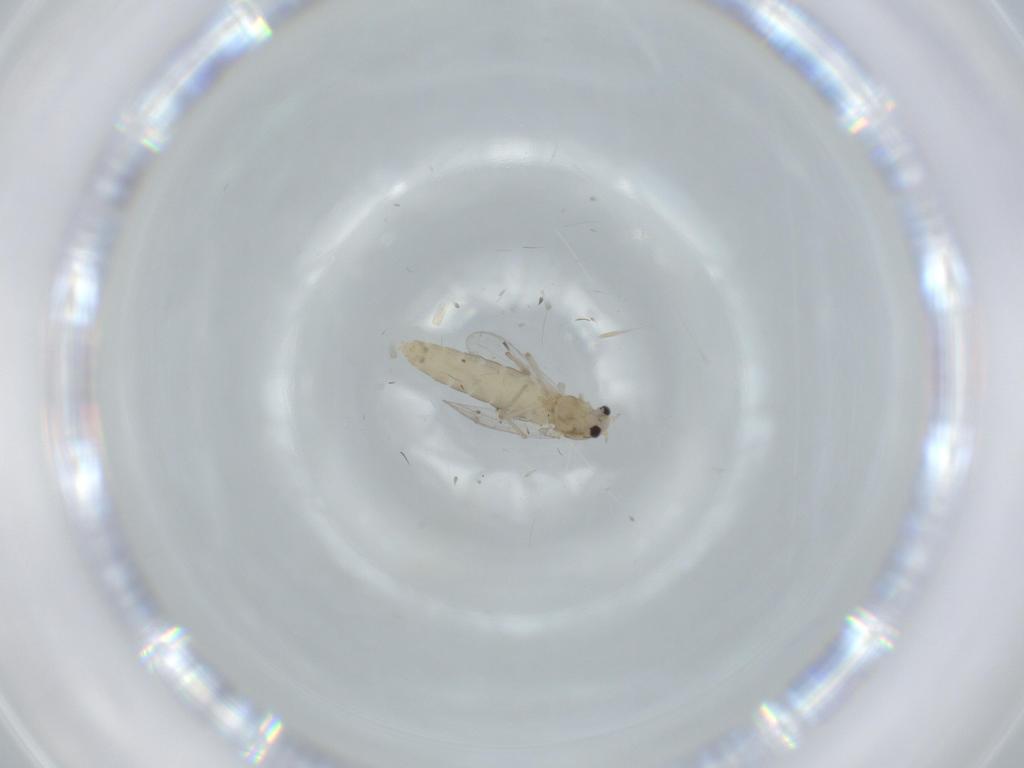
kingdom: Animalia
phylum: Arthropoda
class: Insecta
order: Diptera
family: Chironomidae
